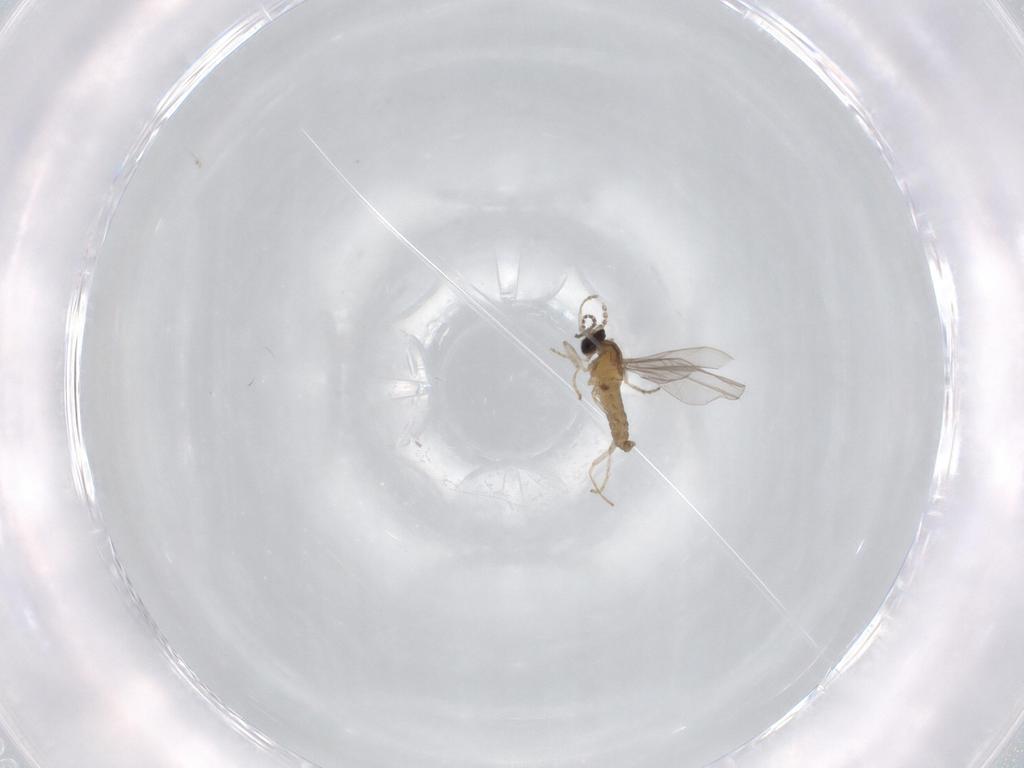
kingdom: Animalia
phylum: Arthropoda
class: Insecta
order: Diptera
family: Cecidomyiidae
